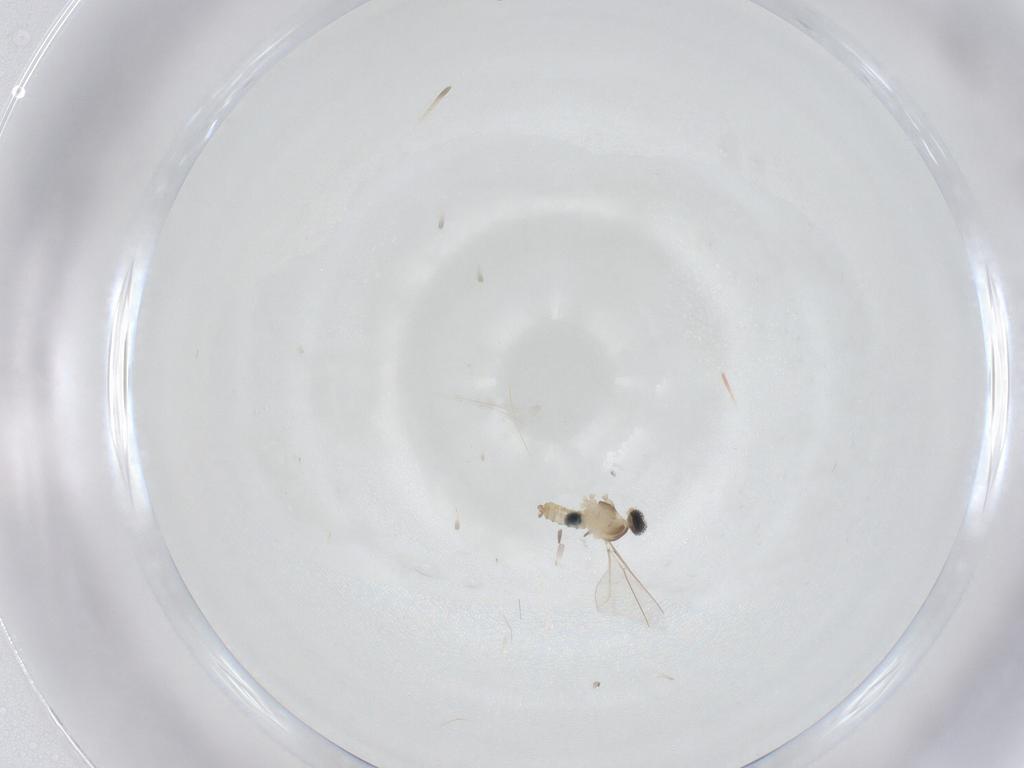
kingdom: Animalia
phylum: Arthropoda
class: Insecta
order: Diptera
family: Cecidomyiidae
